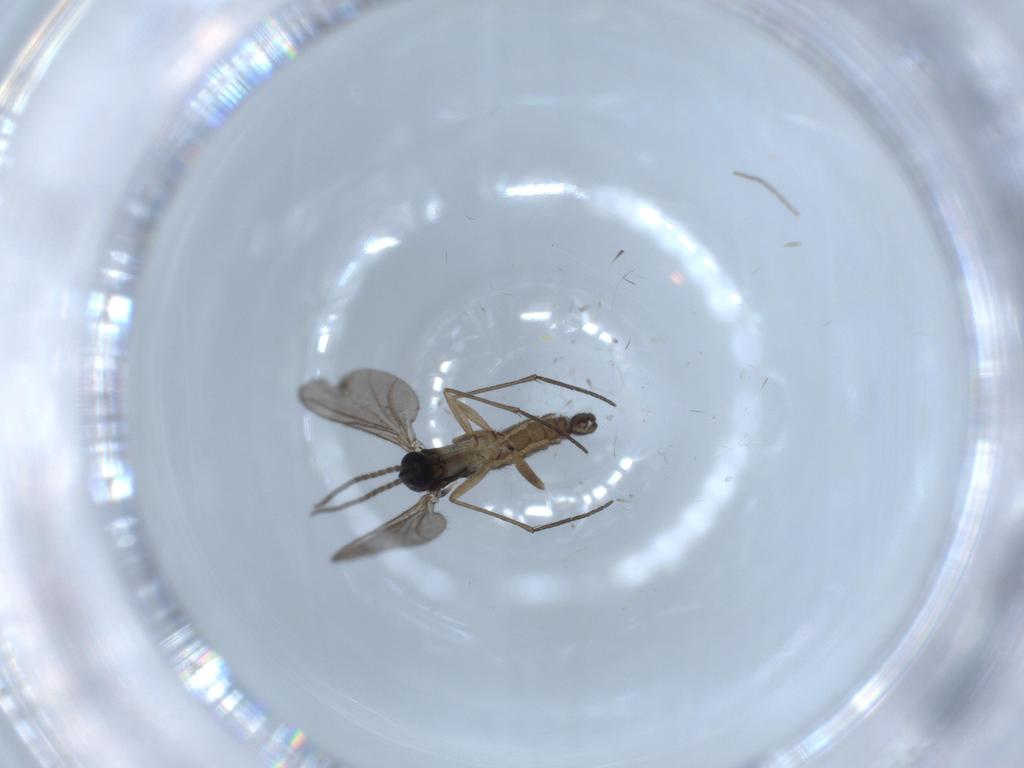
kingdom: Animalia
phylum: Arthropoda
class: Insecta
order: Diptera
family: Sciaridae
